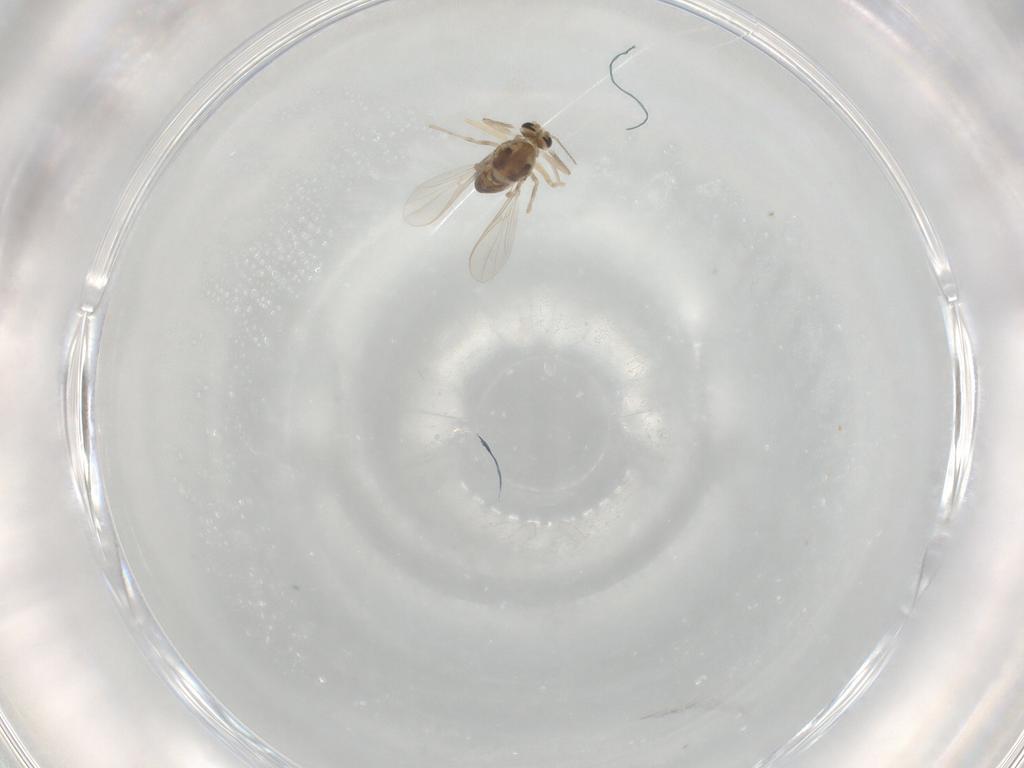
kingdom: Animalia
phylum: Arthropoda
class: Insecta
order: Diptera
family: Chironomidae
